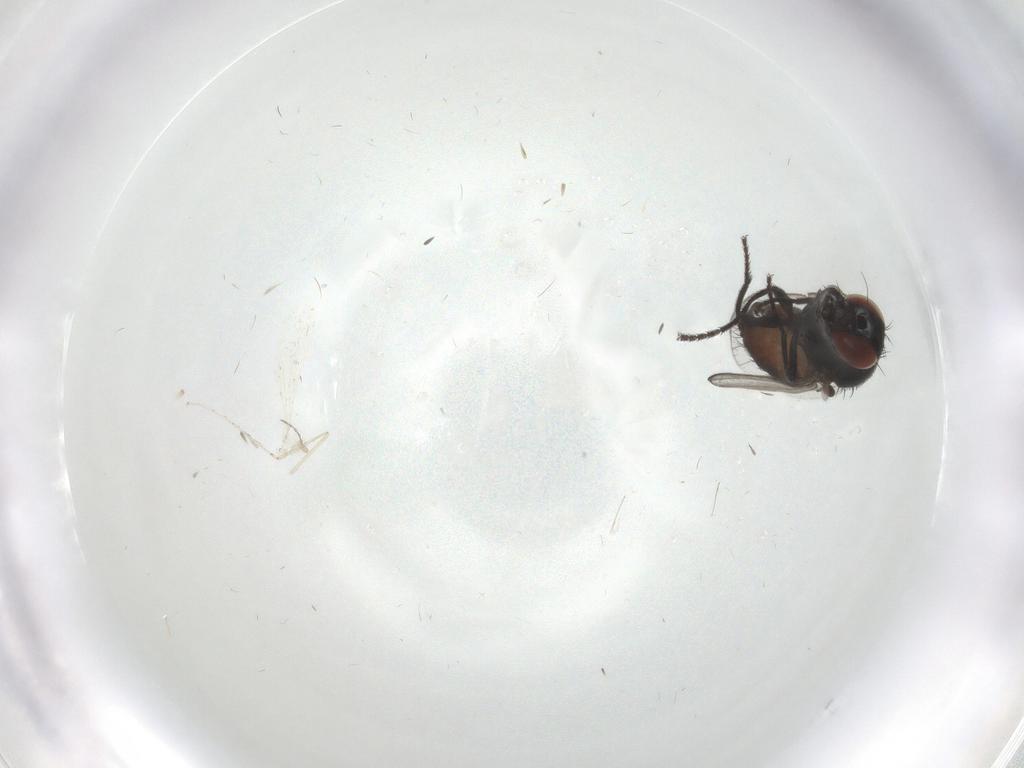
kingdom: Animalia
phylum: Arthropoda
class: Insecta
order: Diptera
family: Milichiidae
